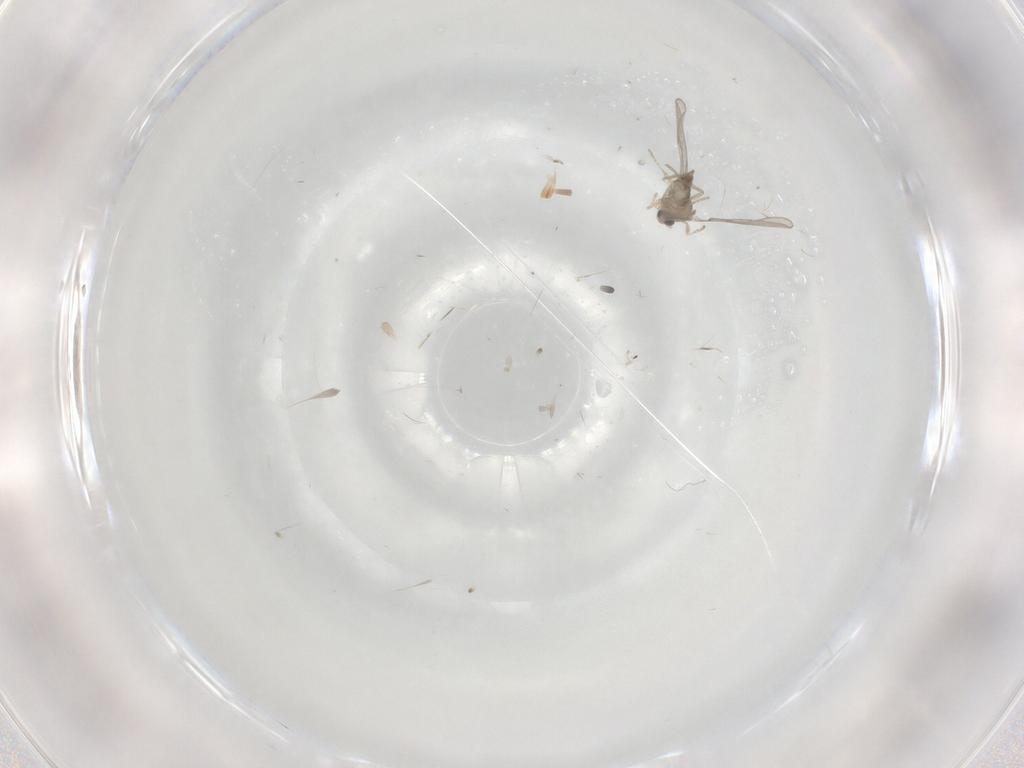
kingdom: Animalia
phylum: Arthropoda
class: Insecta
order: Diptera
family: Cecidomyiidae
